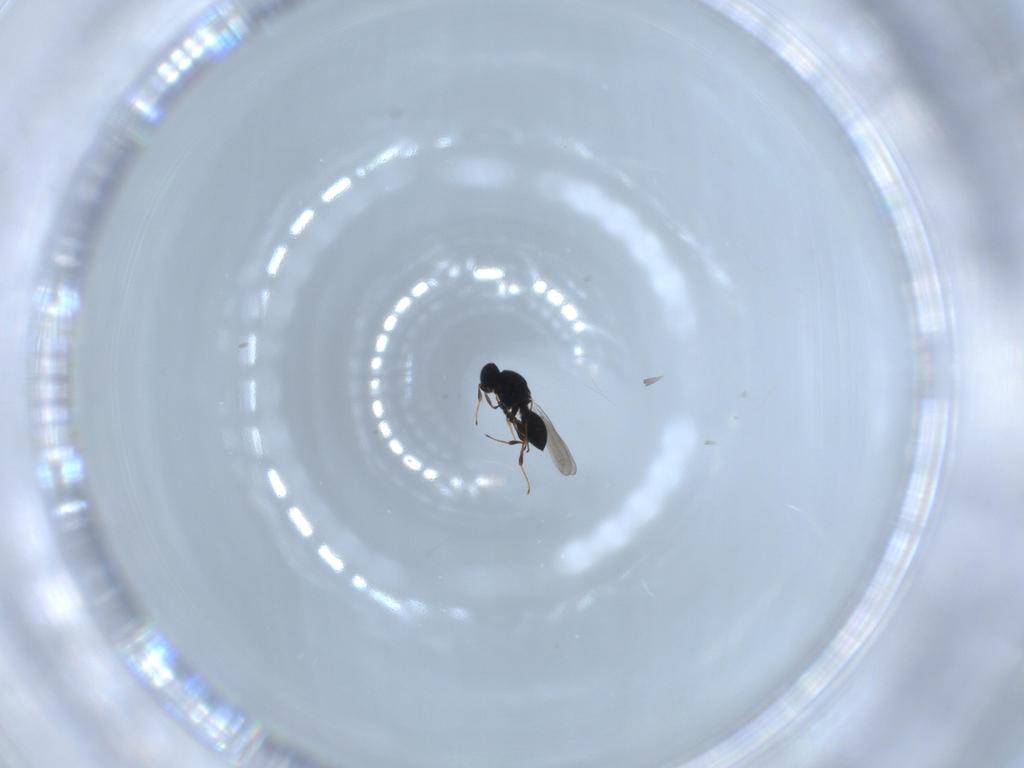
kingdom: Animalia
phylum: Arthropoda
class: Insecta
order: Hymenoptera
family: Platygastridae
